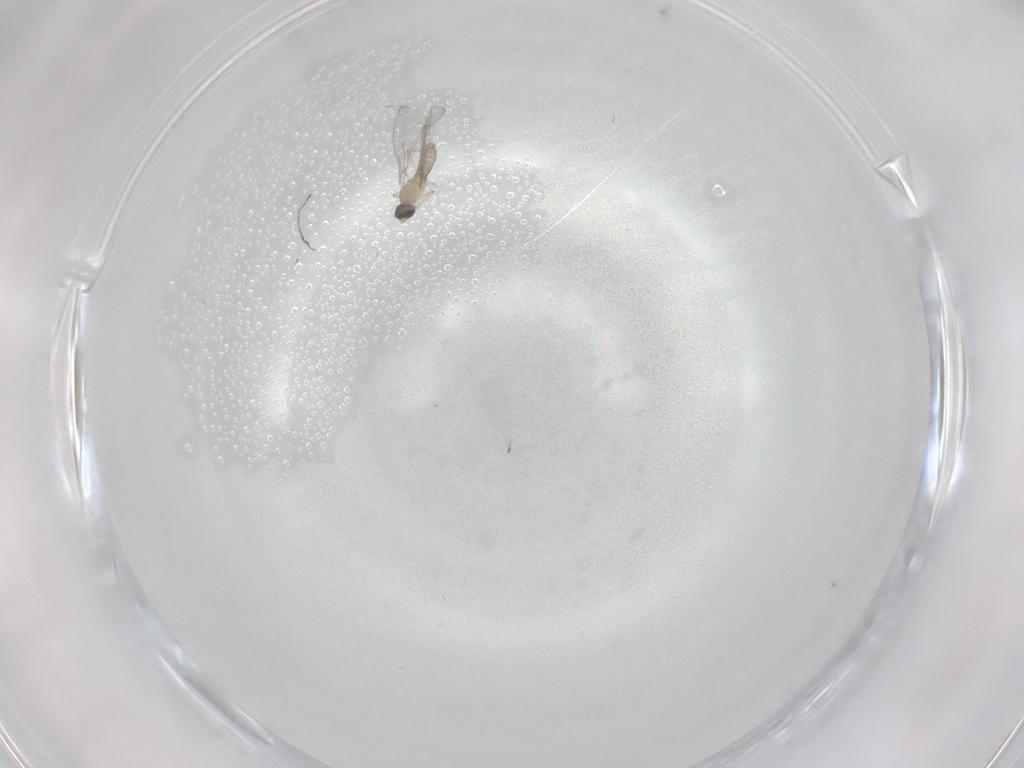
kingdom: Animalia
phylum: Arthropoda
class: Insecta
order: Diptera
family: Cecidomyiidae
